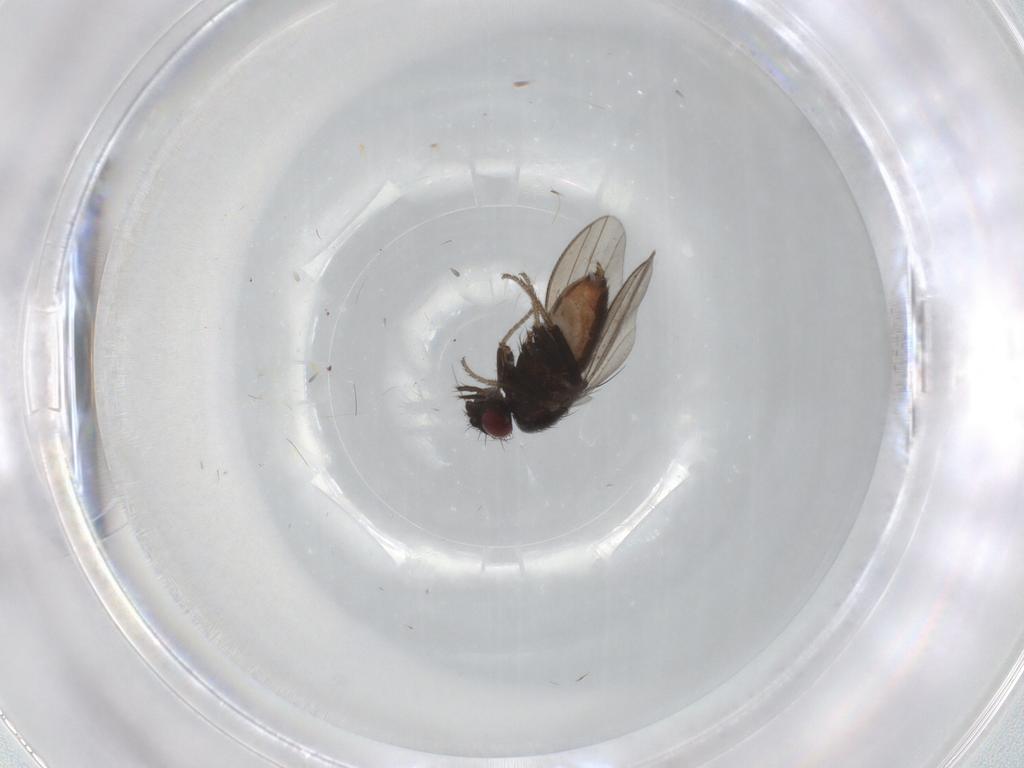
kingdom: Animalia
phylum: Arthropoda
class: Insecta
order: Diptera
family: Milichiidae
